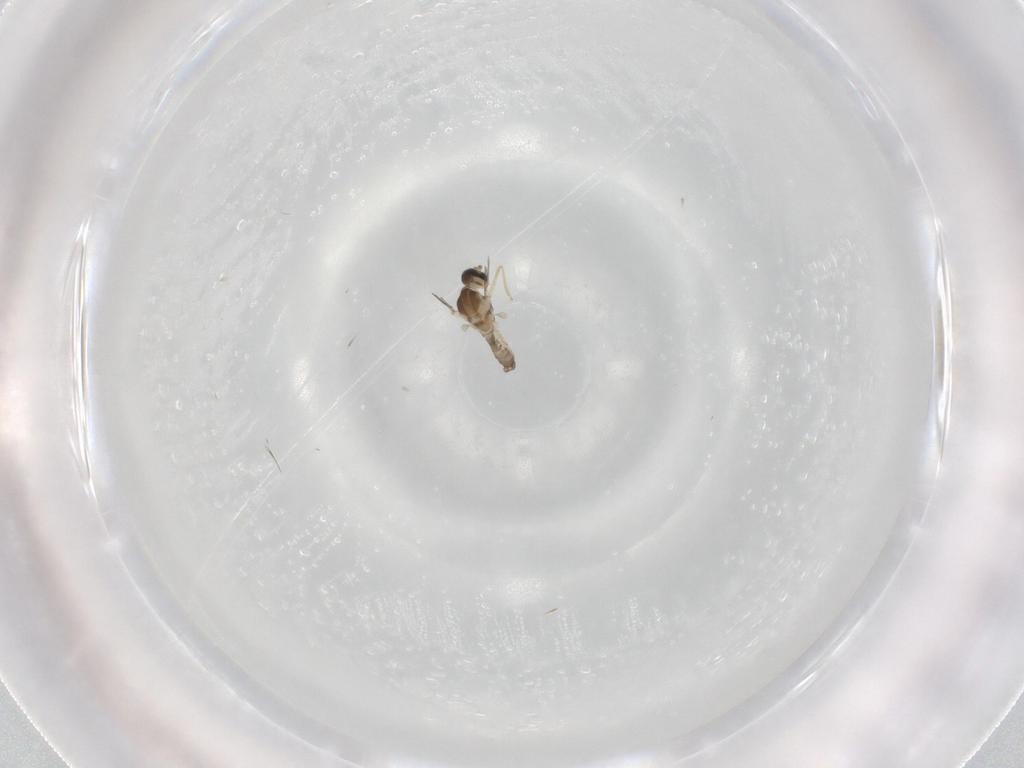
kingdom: Animalia
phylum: Arthropoda
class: Insecta
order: Diptera
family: Cecidomyiidae
